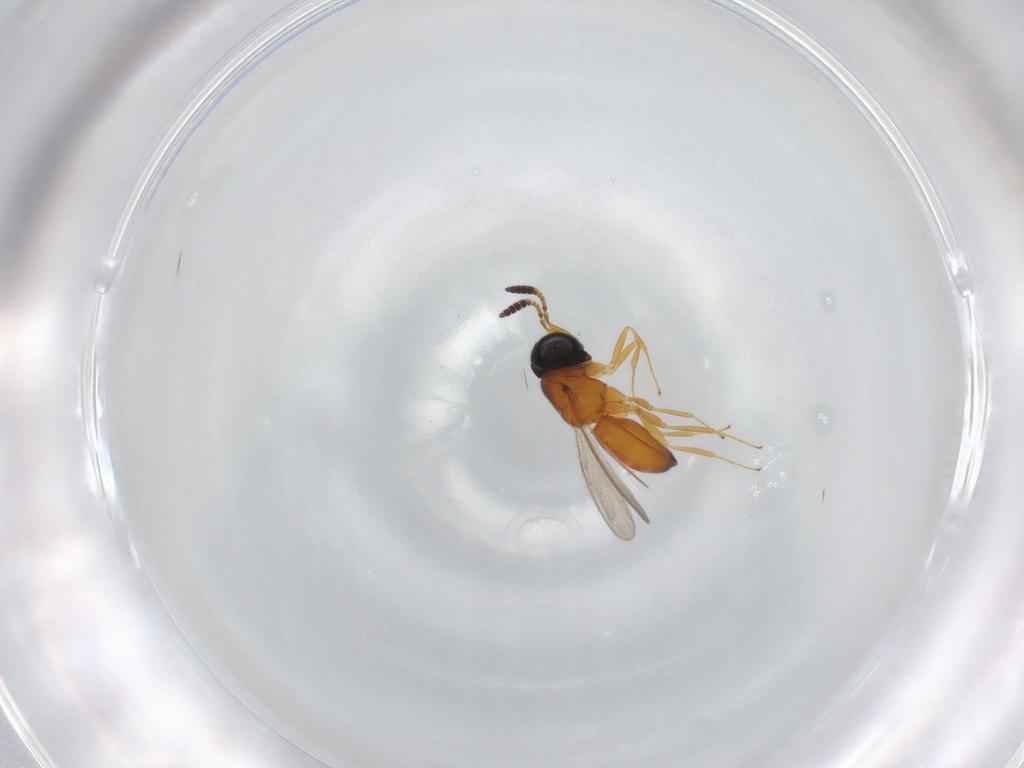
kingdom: Animalia
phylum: Arthropoda
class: Insecta
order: Hymenoptera
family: Scelionidae
